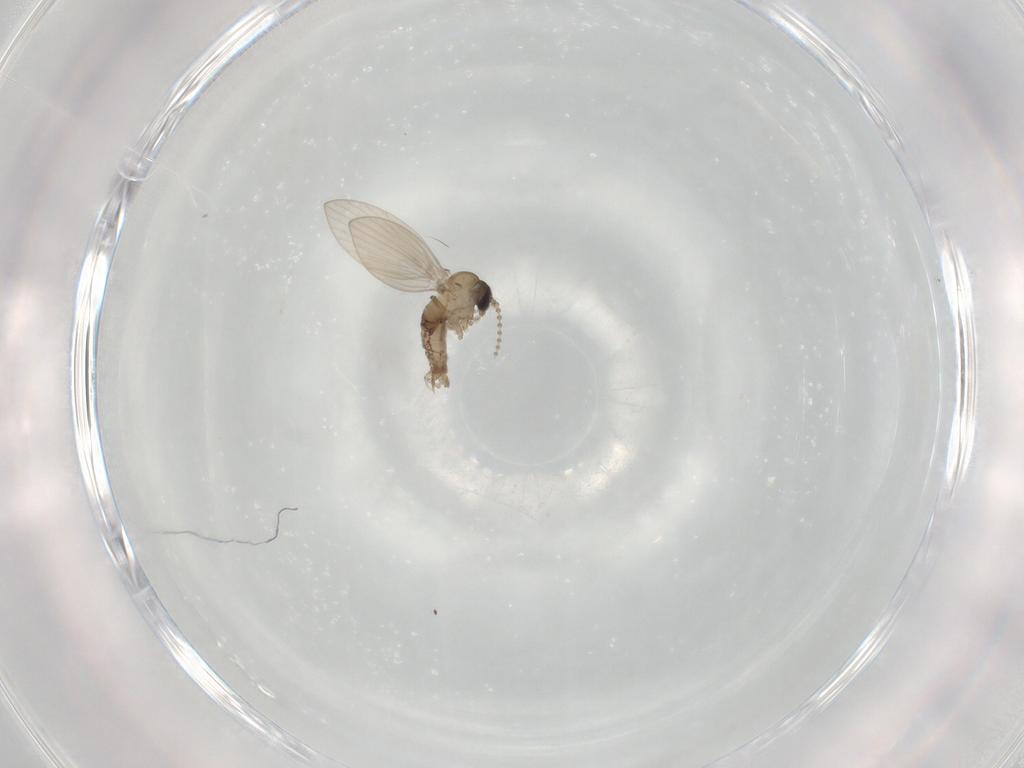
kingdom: Animalia
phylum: Arthropoda
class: Insecta
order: Diptera
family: Psychodidae
